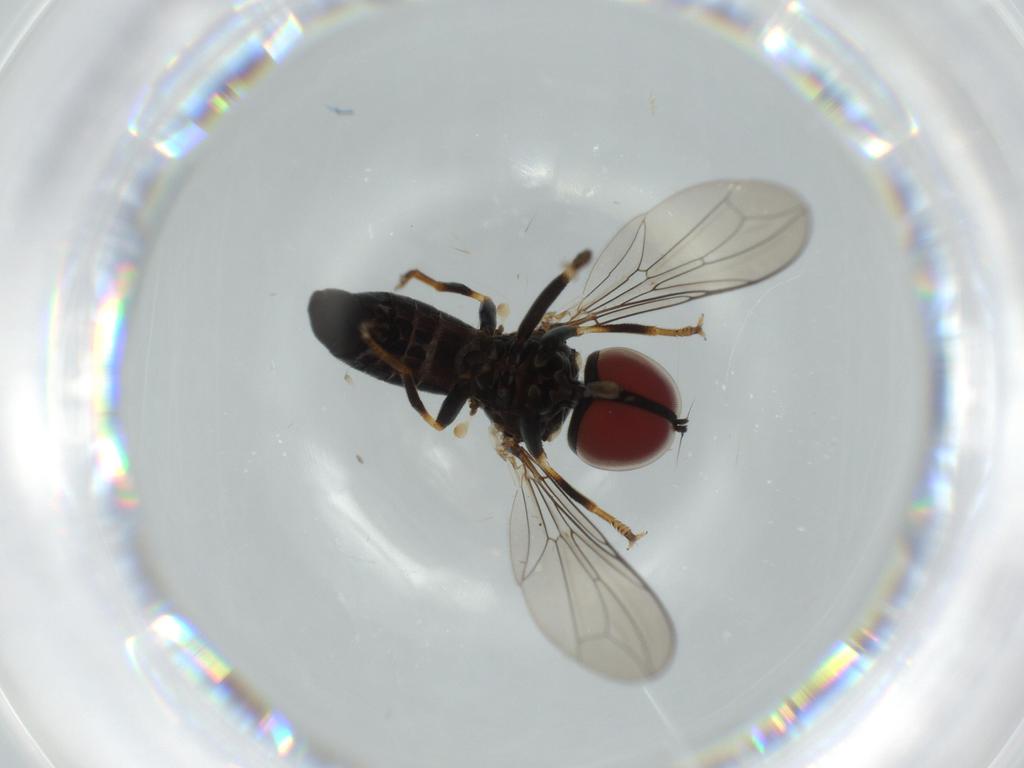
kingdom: Animalia
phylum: Arthropoda
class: Insecta
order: Diptera
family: Pipunculidae
